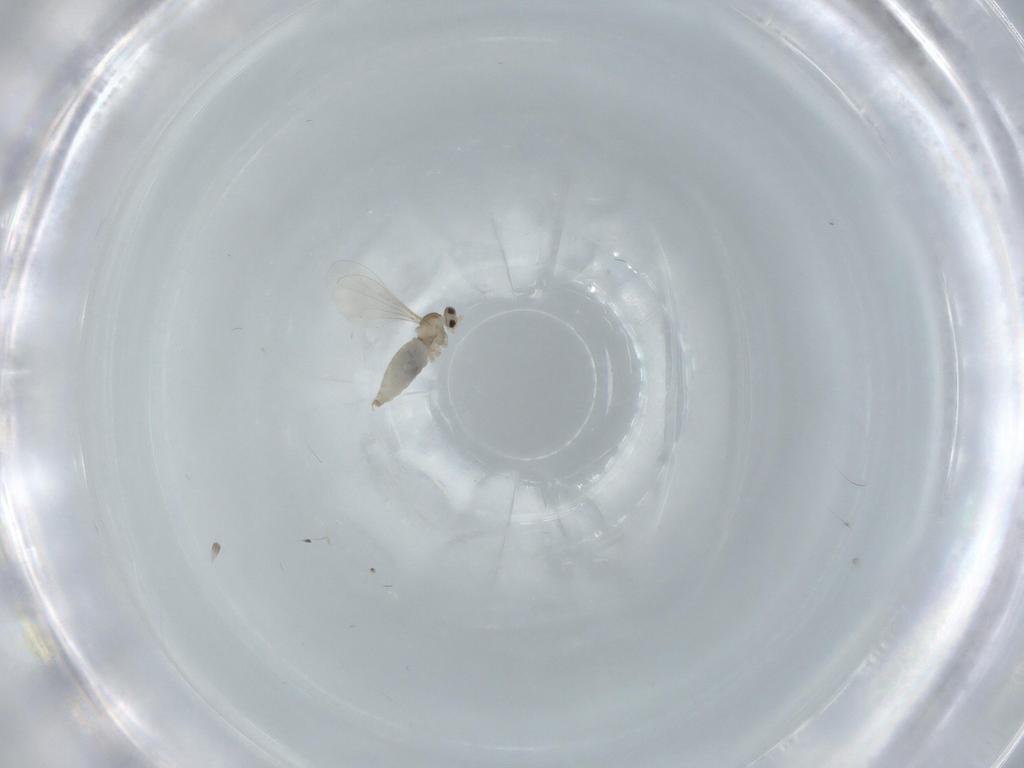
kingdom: Animalia
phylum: Arthropoda
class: Insecta
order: Diptera
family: Cecidomyiidae
